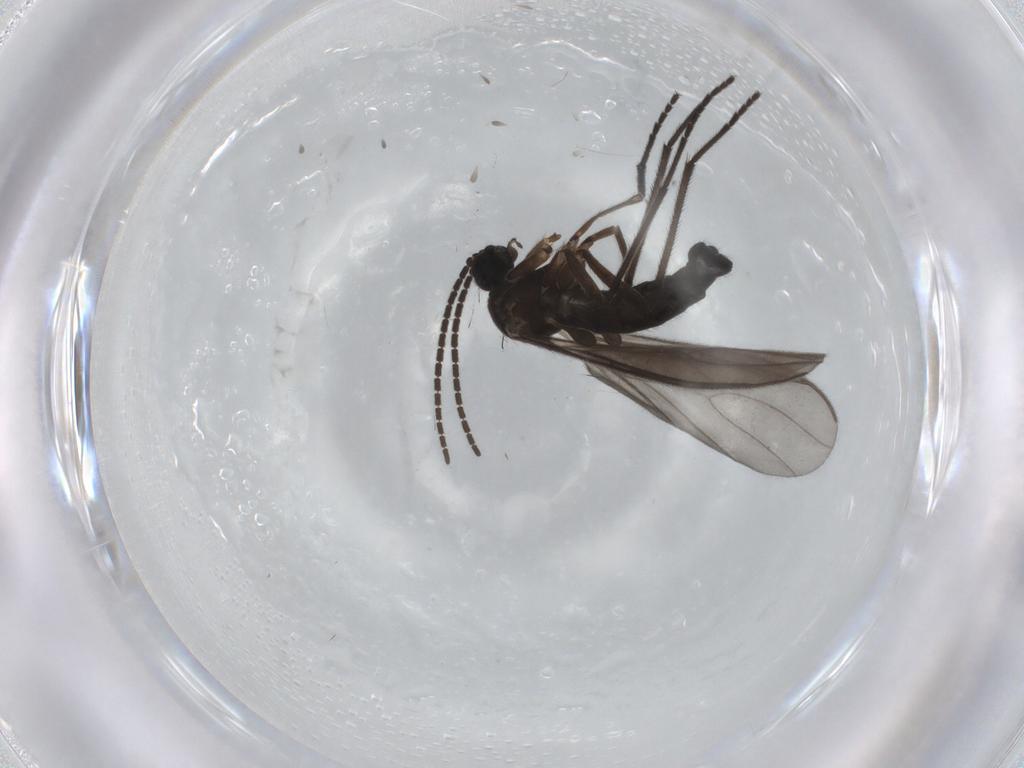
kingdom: Animalia
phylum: Arthropoda
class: Insecta
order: Diptera
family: Sciaridae
